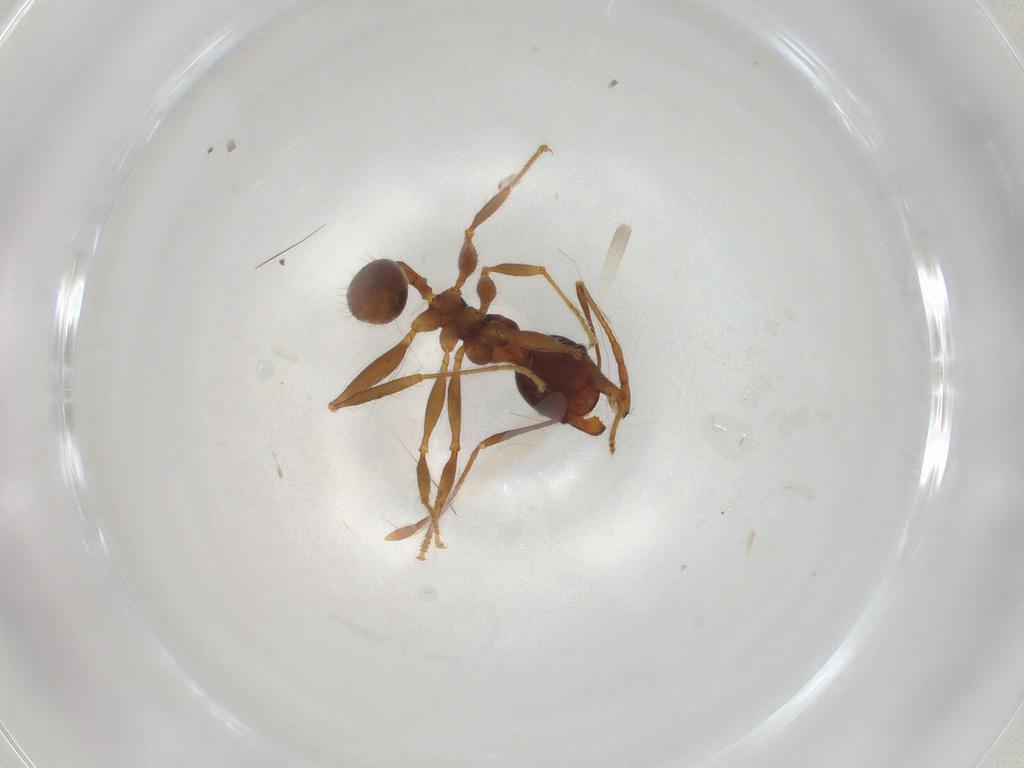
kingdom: Animalia
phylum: Arthropoda
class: Insecta
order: Hymenoptera
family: Formicidae
